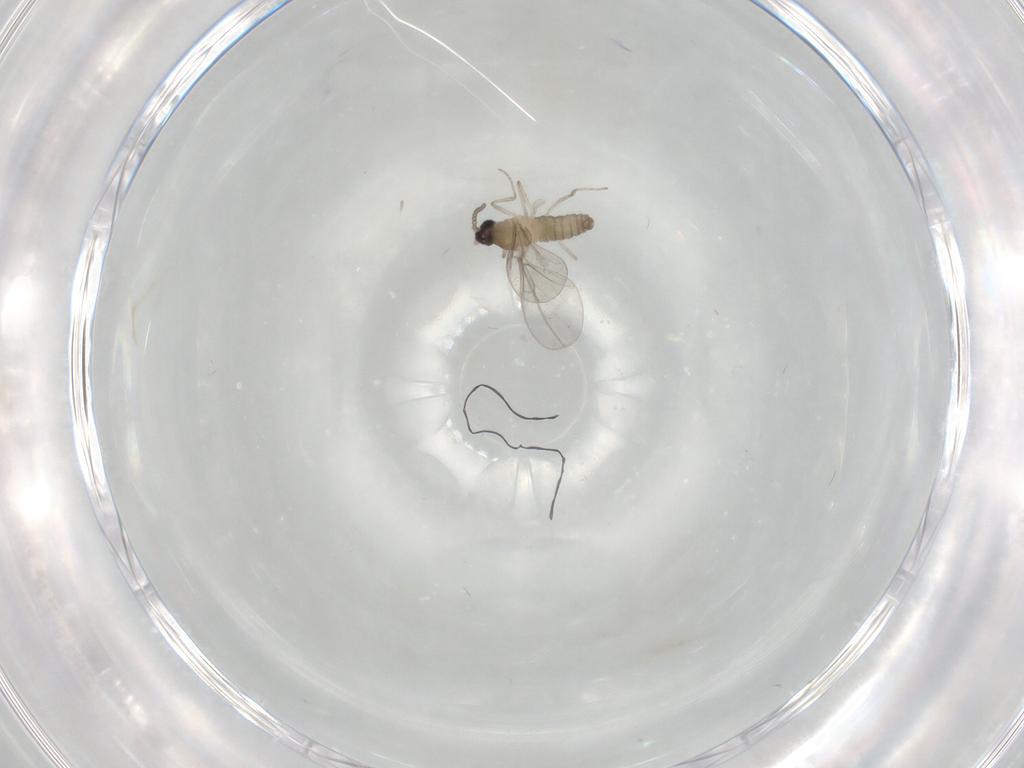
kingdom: Animalia
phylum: Arthropoda
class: Insecta
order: Diptera
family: Cecidomyiidae
